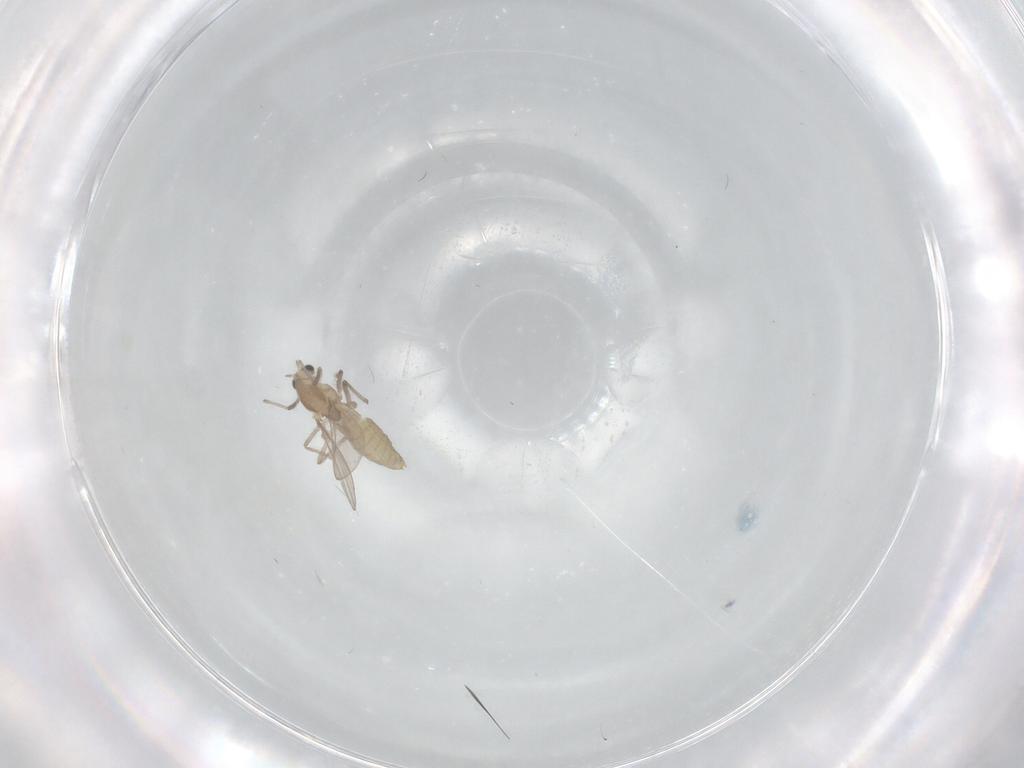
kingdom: Animalia
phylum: Arthropoda
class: Insecta
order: Diptera
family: Chironomidae
